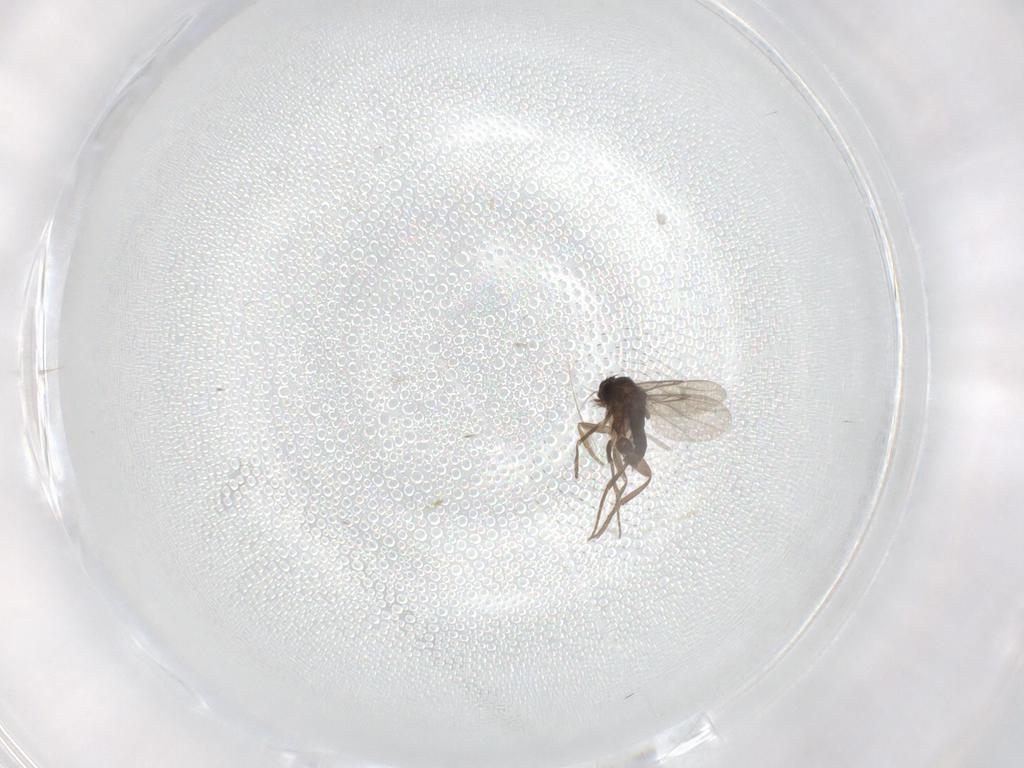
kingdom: Animalia
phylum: Arthropoda
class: Insecta
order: Diptera
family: Phoridae
